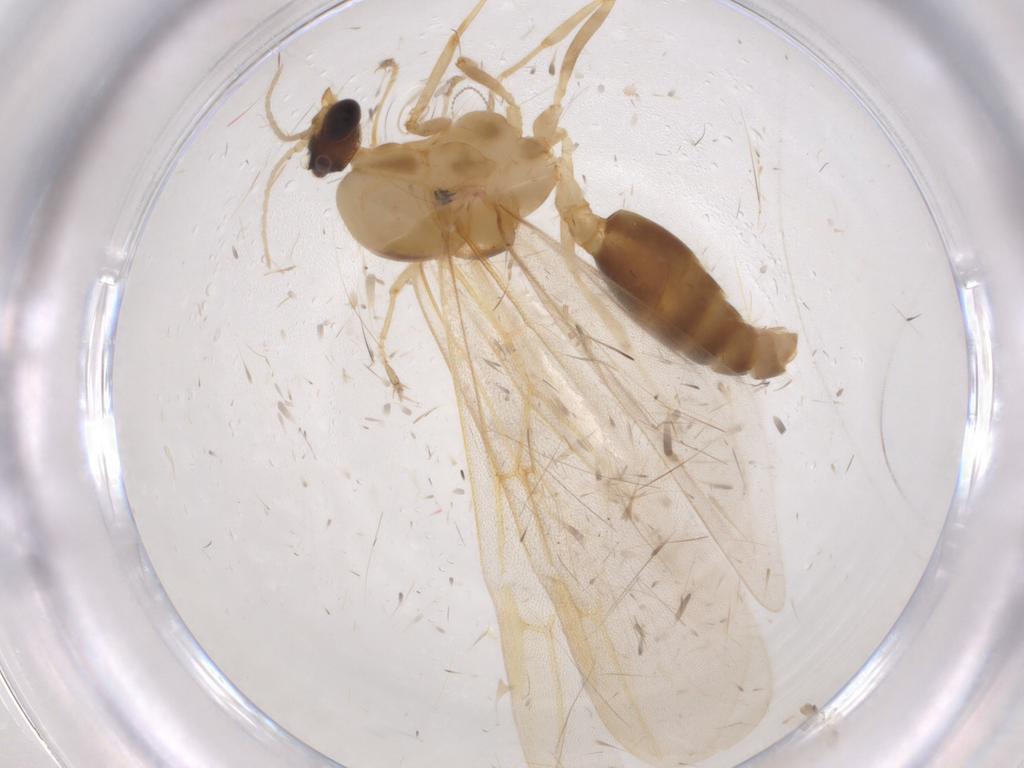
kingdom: Animalia
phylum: Arthropoda
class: Insecta
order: Hymenoptera
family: Formicidae
